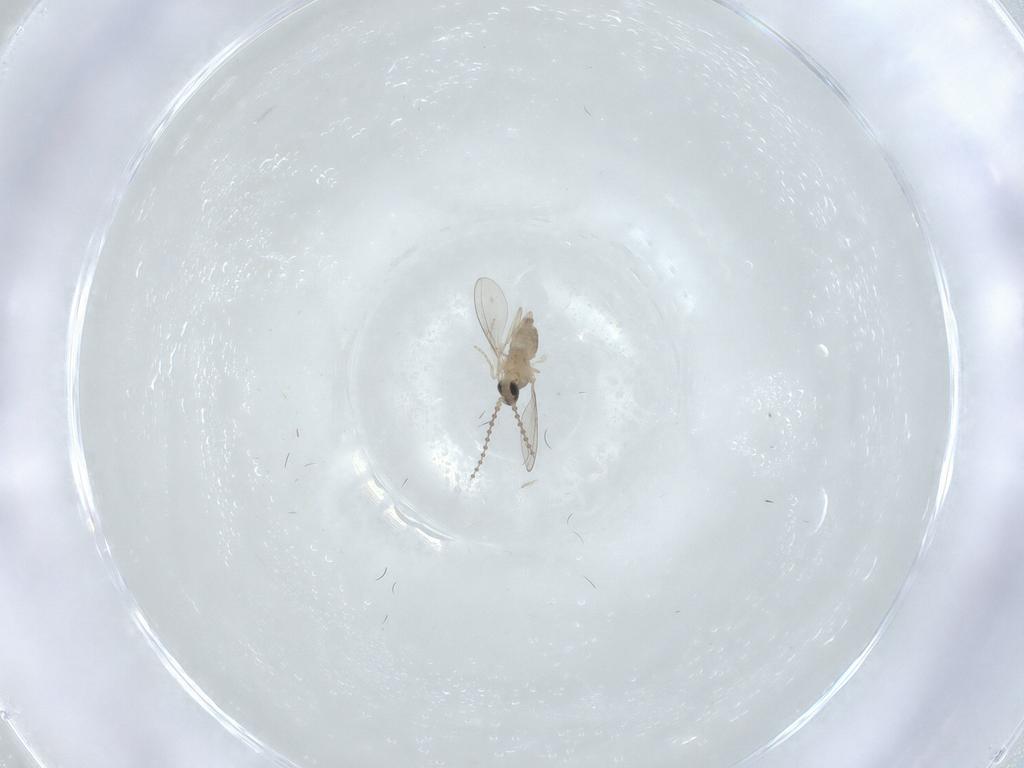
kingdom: Animalia
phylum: Arthropoda
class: Insecta
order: Diptera
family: Cecidomyiidae
